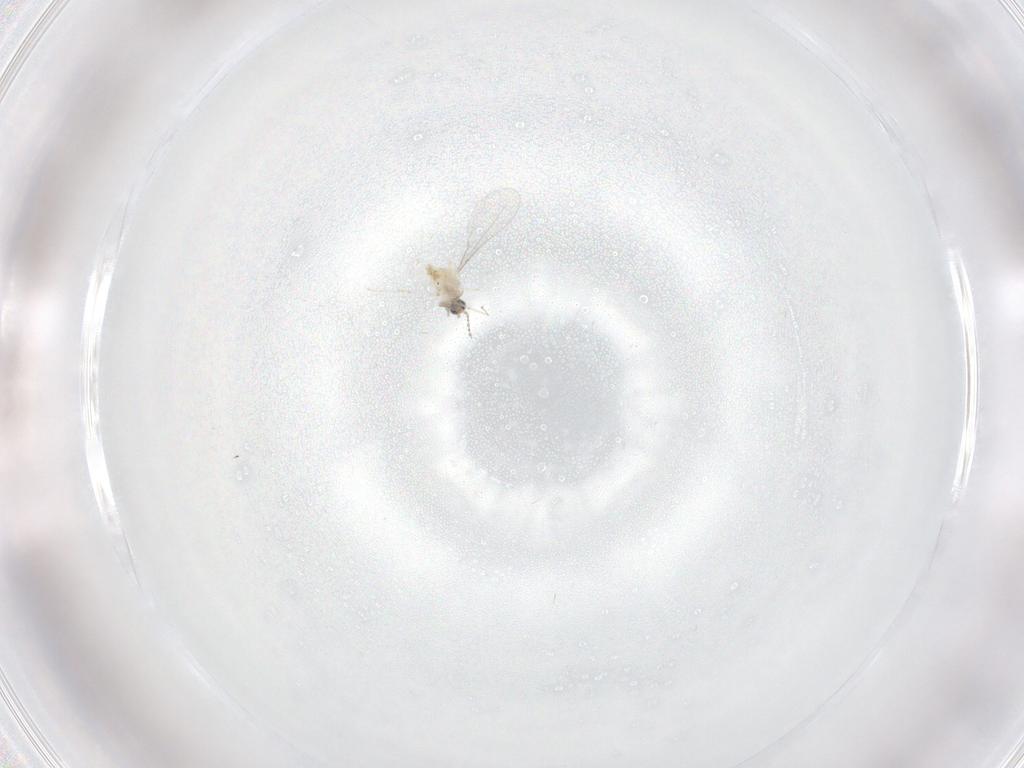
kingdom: Animalia
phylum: Arthropoda
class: Insecta
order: Diptera
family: Cecidomyiidae
